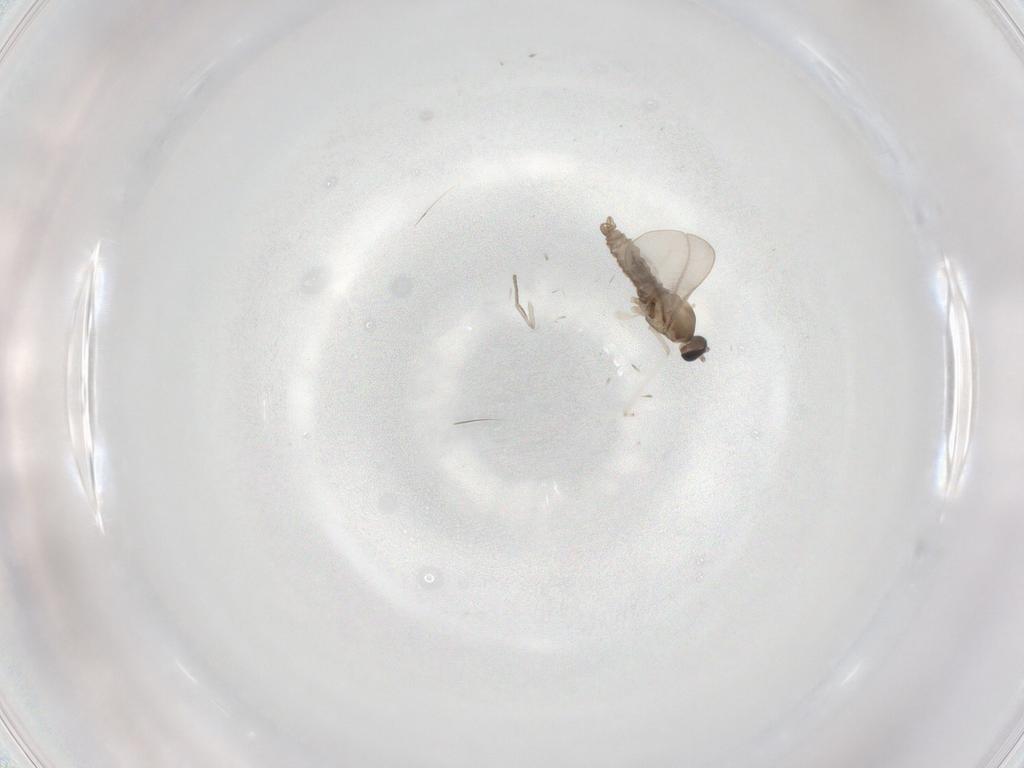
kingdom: Animalia
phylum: Arthropoda
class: Insecta
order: Diptera
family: Cecidomyiidae
